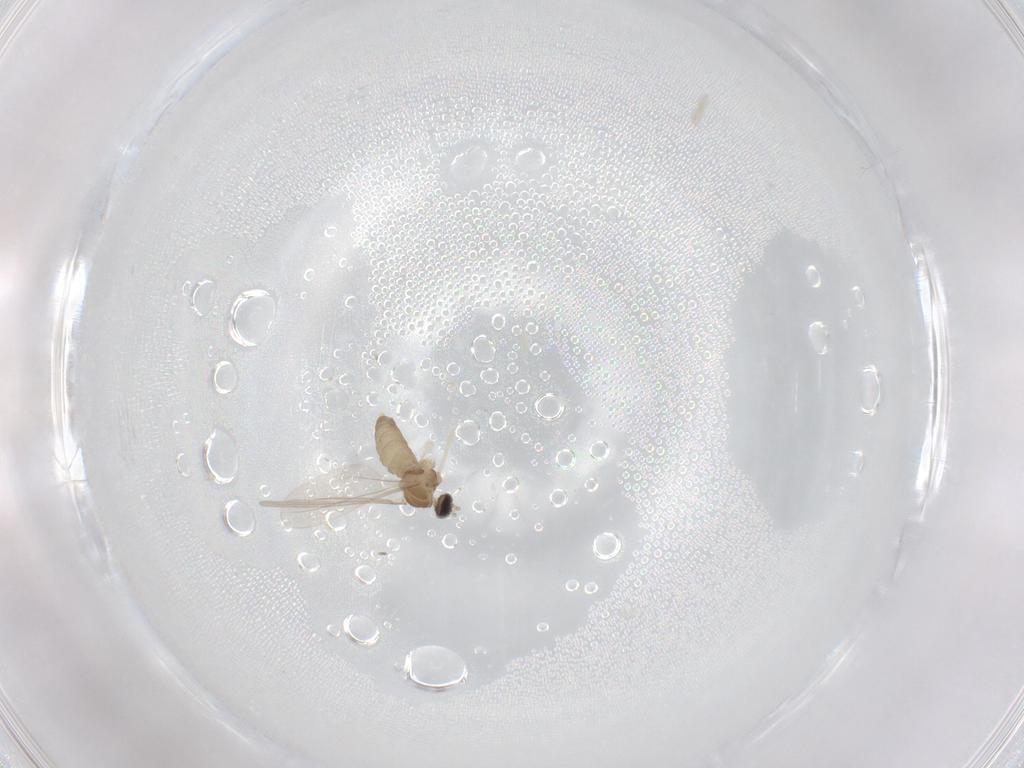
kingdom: Animalia
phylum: Arthropoda
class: Insecta
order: Diptera
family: Cecidomyiidae
